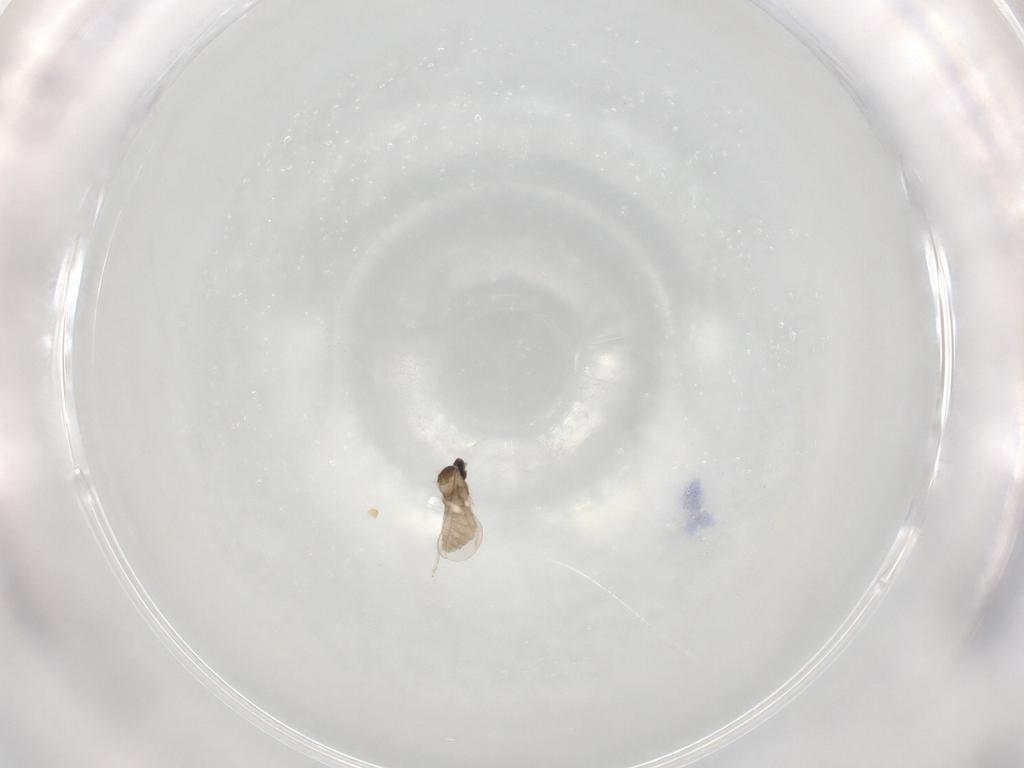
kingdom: Animalia
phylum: Arthropoda
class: Insecta
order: Diptera
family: Cecidomyiidae
